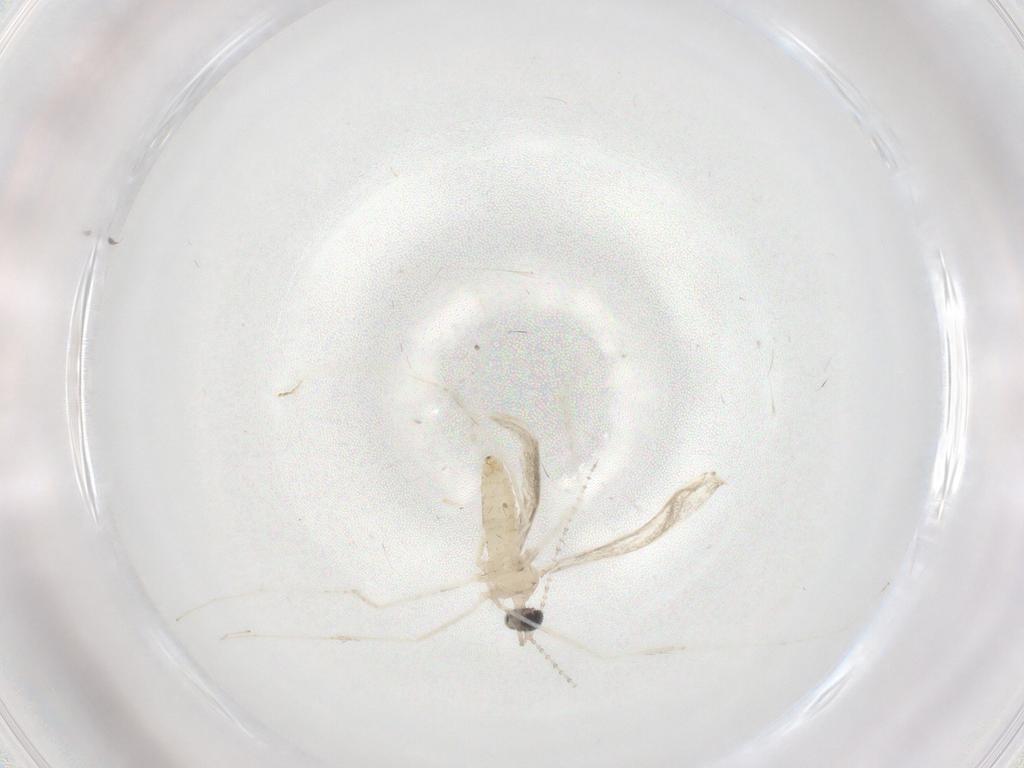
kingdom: Animalia
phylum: Arthropoda
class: Insecta
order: Diptera
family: Cecidomyiidae
